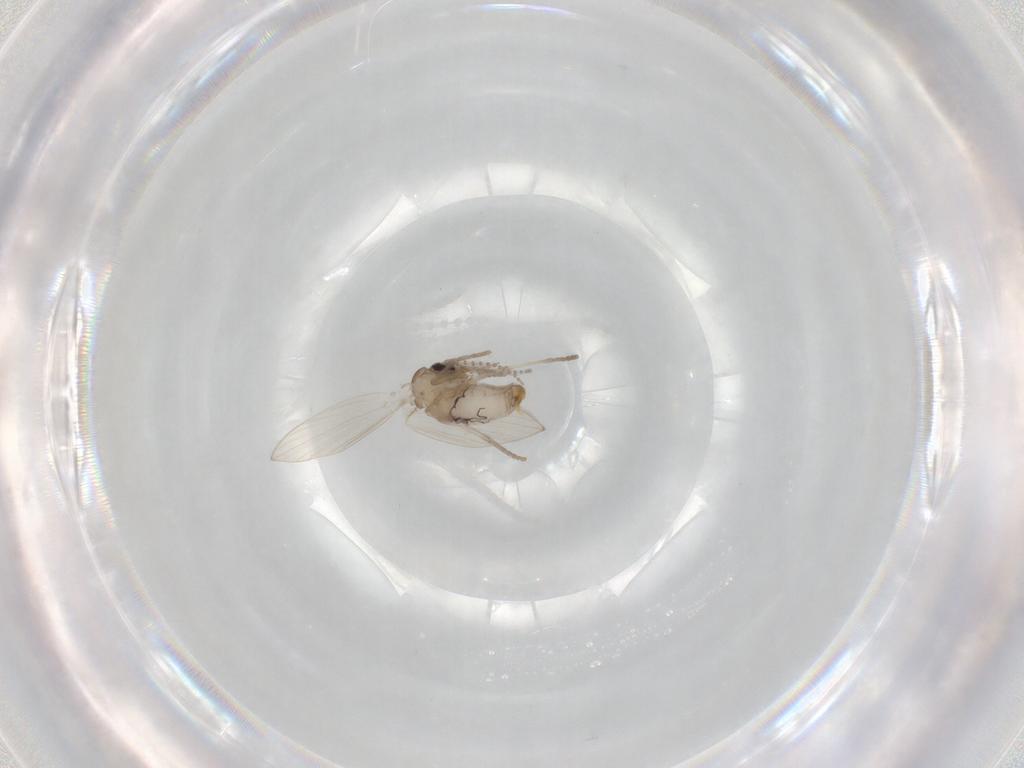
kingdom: Animalia
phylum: Arthropoda
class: Insecta
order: Diptera
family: Psychodidae
